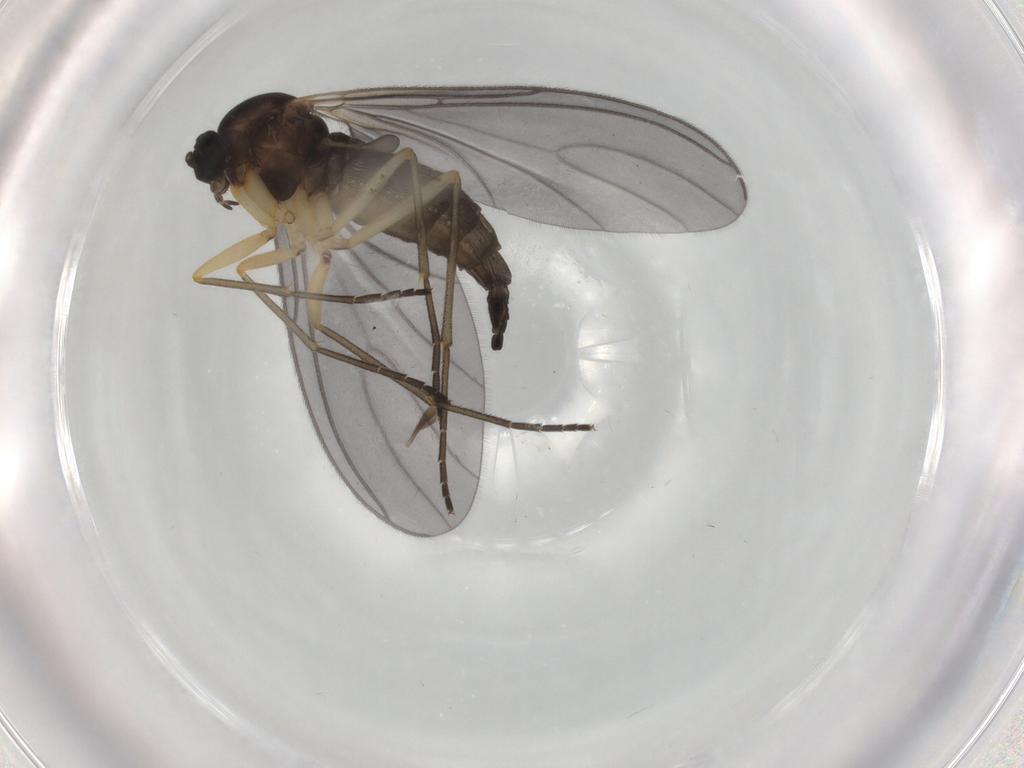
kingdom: Animalia
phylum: Arthropoda
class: Insecta
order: Diptera
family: Sciaridae
